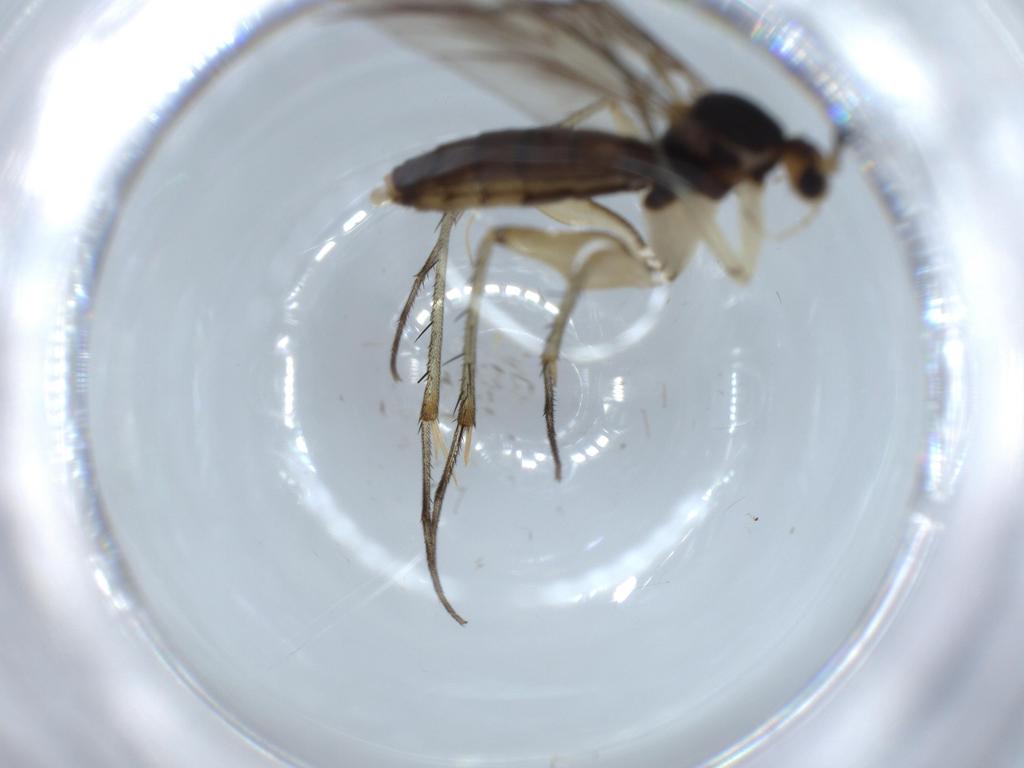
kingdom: Animalia
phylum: Arthropoda
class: Insecta
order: Diptera
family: Mycetophilidae
